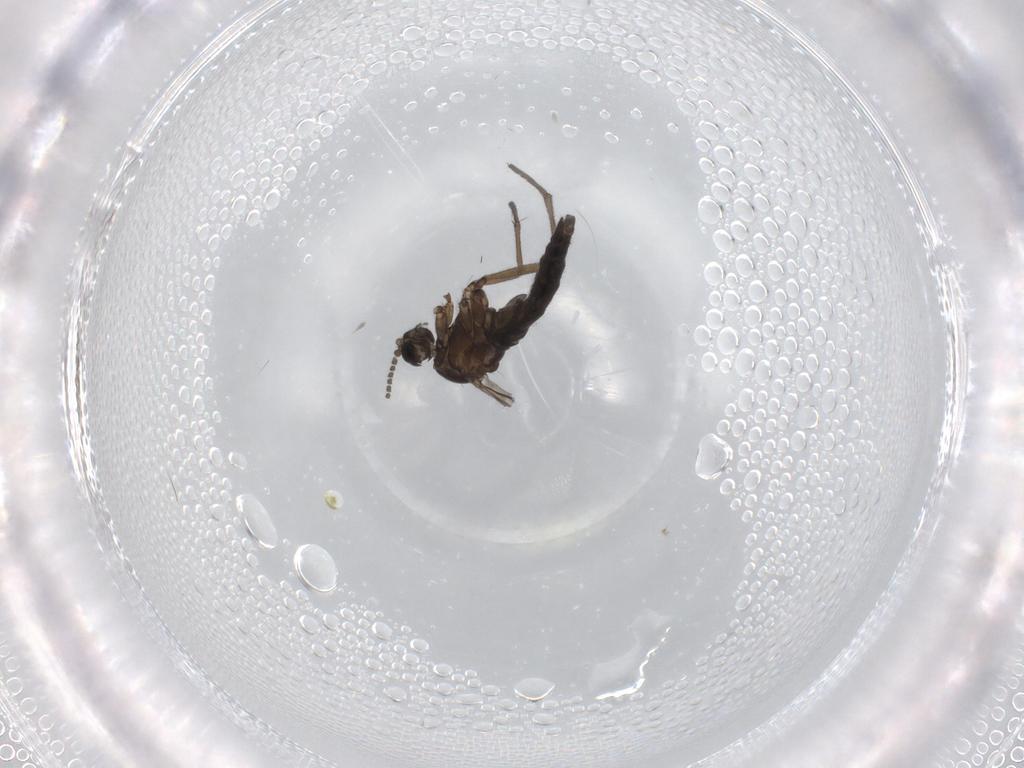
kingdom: Animalia
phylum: Arthropoda
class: Insecta
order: Diptera
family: Sciaridae
